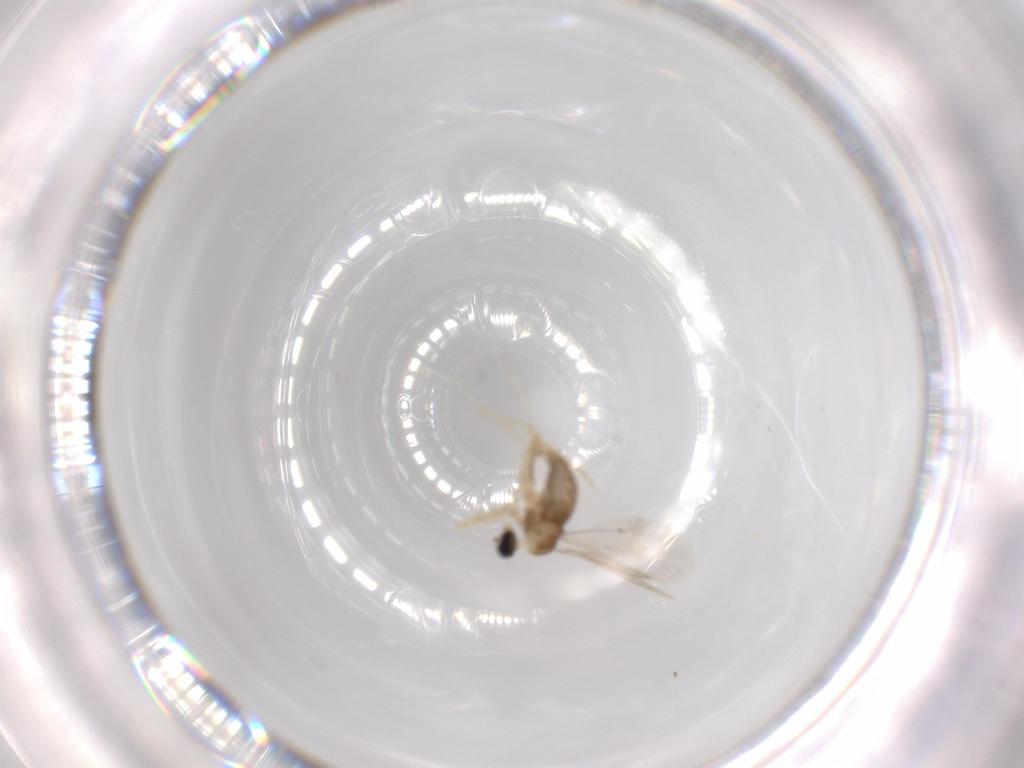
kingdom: Animalia
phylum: Arthropoda
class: Insecta
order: Diptera
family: Cecidomyiidae
